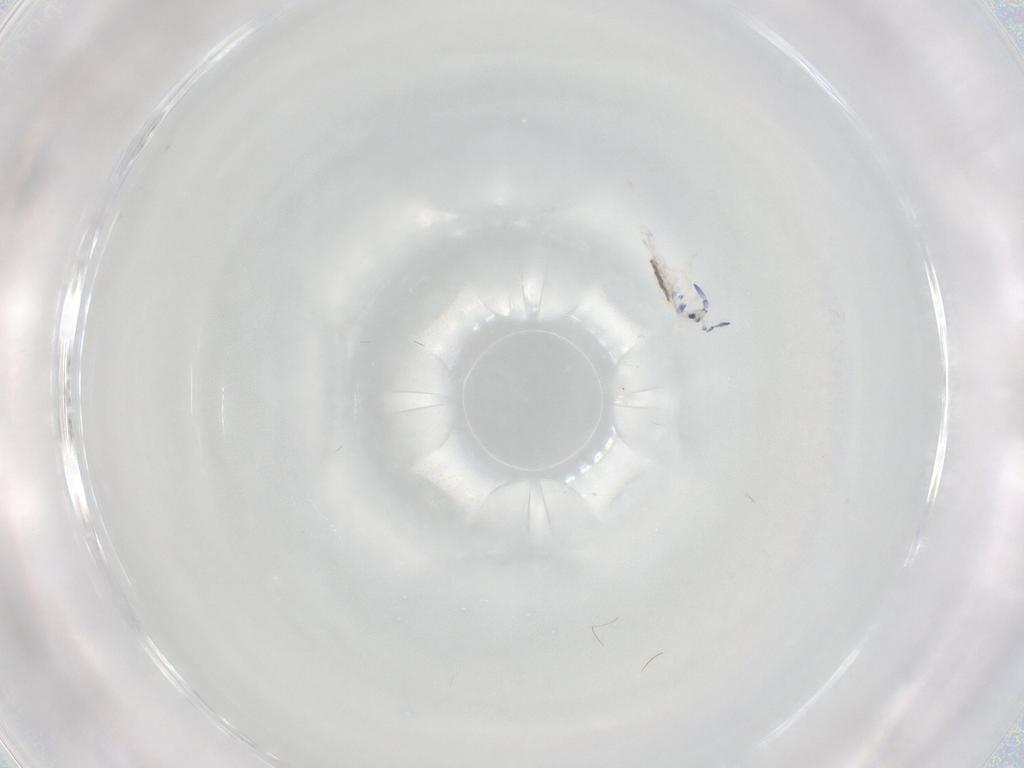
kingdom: Animalia
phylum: Arthropoda
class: Collembola
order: Entomobryomorpha
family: Entomobryidae
